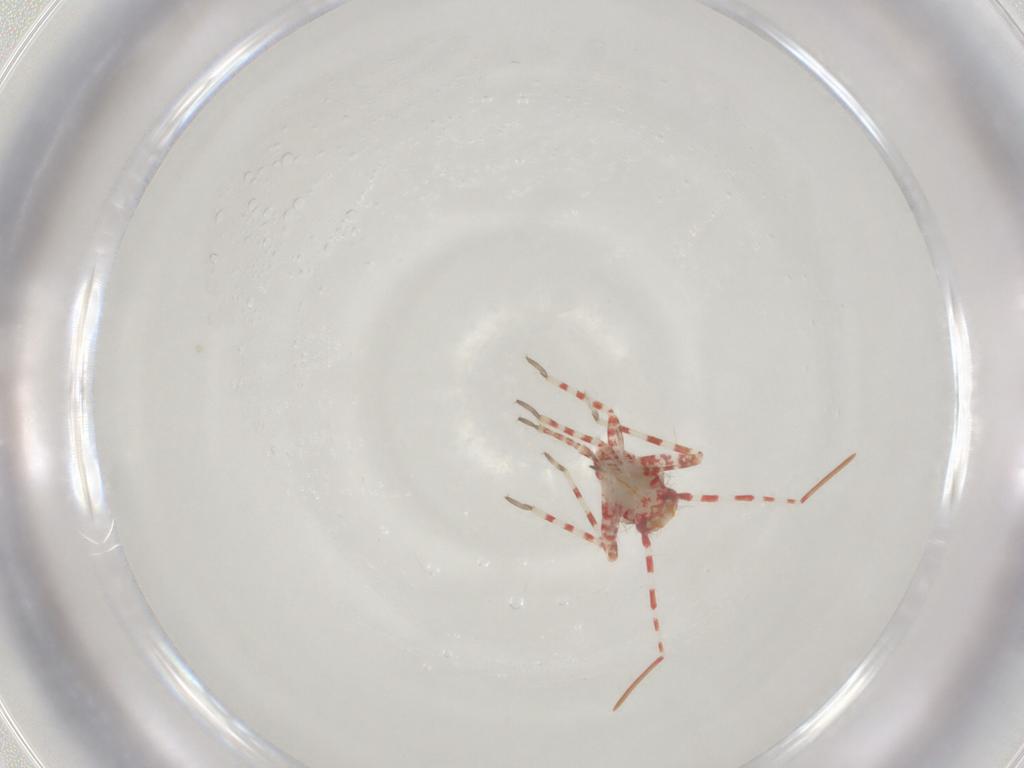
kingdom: Animalia
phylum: Arthropoda
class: Insecta
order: Hemiptera
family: Miridae
